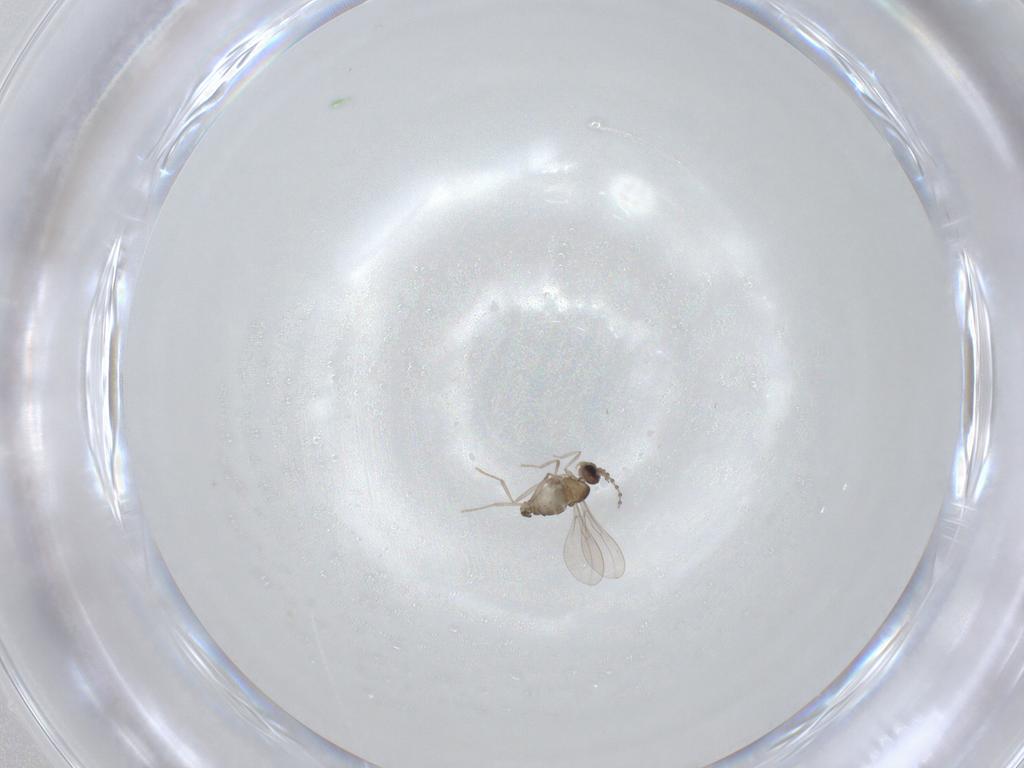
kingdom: Animalia
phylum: Arthropoda
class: Insecta
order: Diptera
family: Cecidomyiidae
